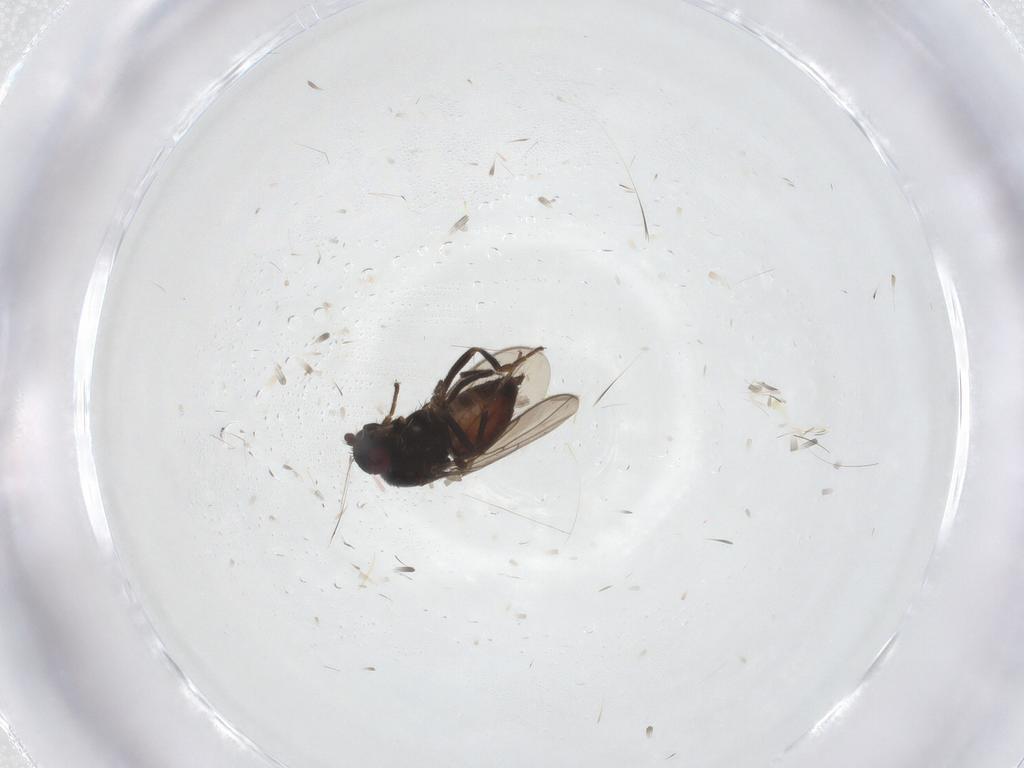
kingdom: Animalia
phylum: Arthropoda
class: Insecta
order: Diptera
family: Sphaeroceridae
